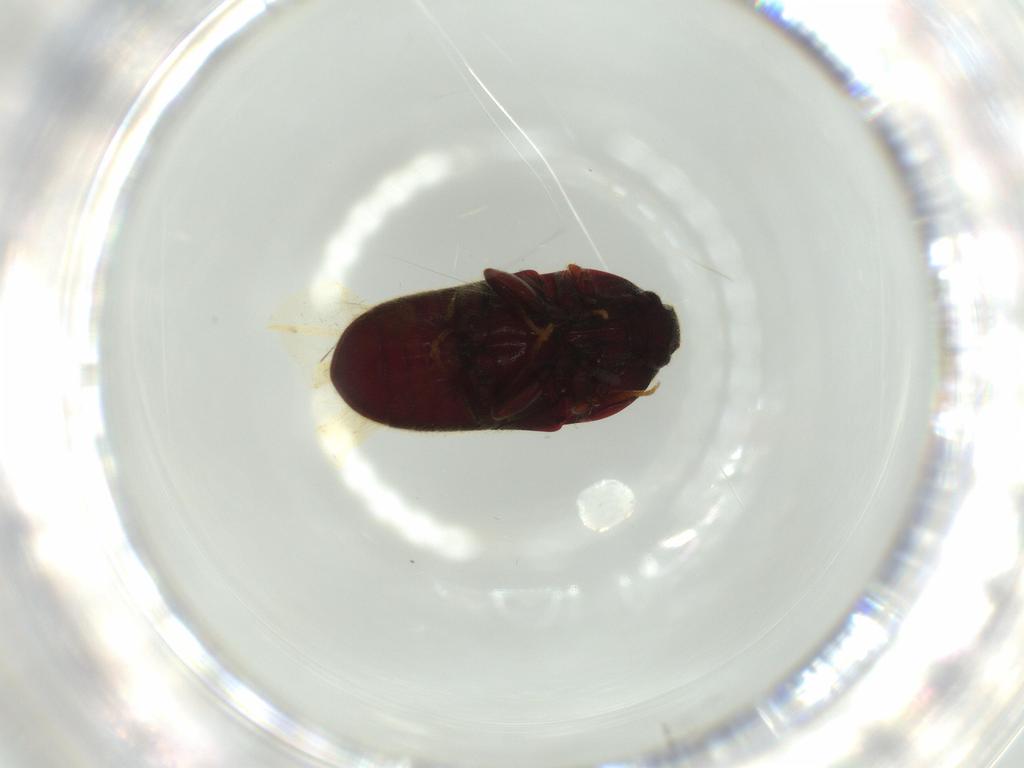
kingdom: Animalia
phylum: Arthropoda
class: Insecta
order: Coleoptera
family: Throscidae
